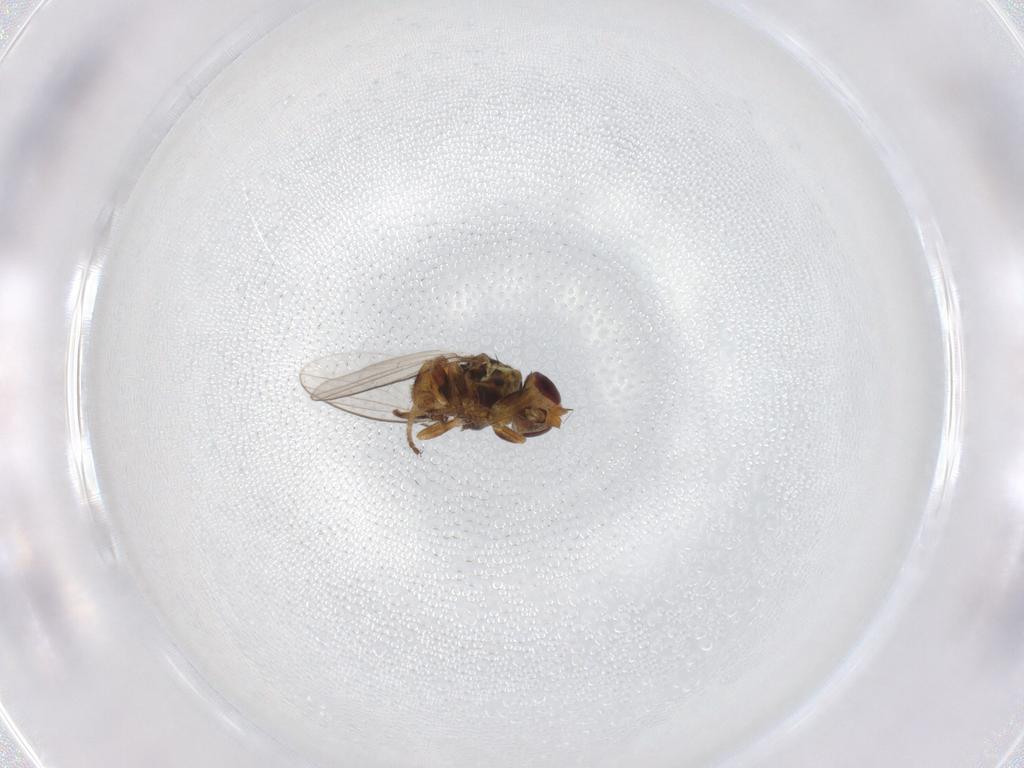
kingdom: Animalia
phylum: Arthropoda
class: Insecta
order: Diptera
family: Chloropidae
